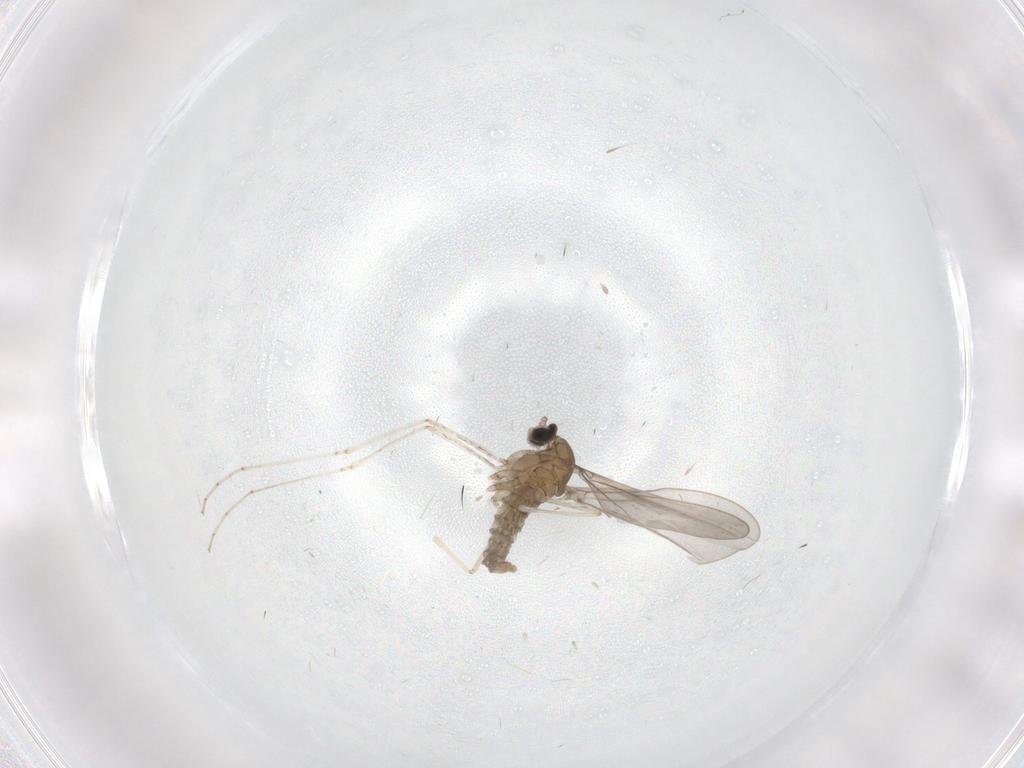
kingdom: Animalia
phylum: Arthropoda
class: Insecta
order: Diptera
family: Cecidomyiidae
